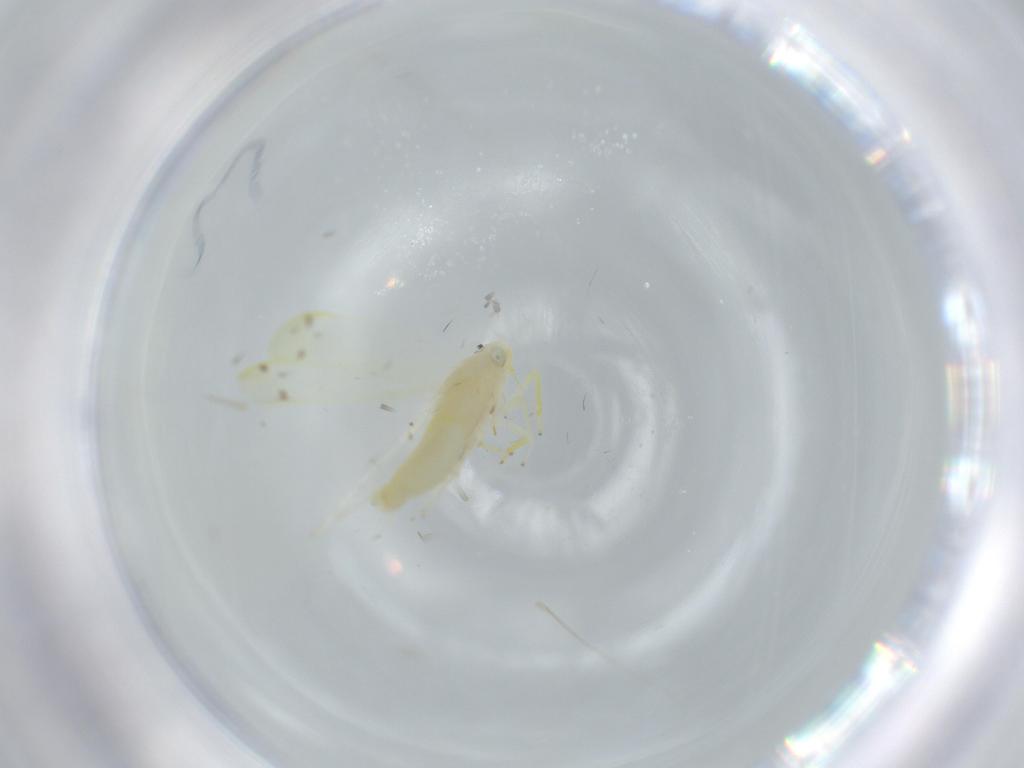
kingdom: Animalia
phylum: Arthropoda
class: Insecta
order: Hemiptera
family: Cicadellidae
